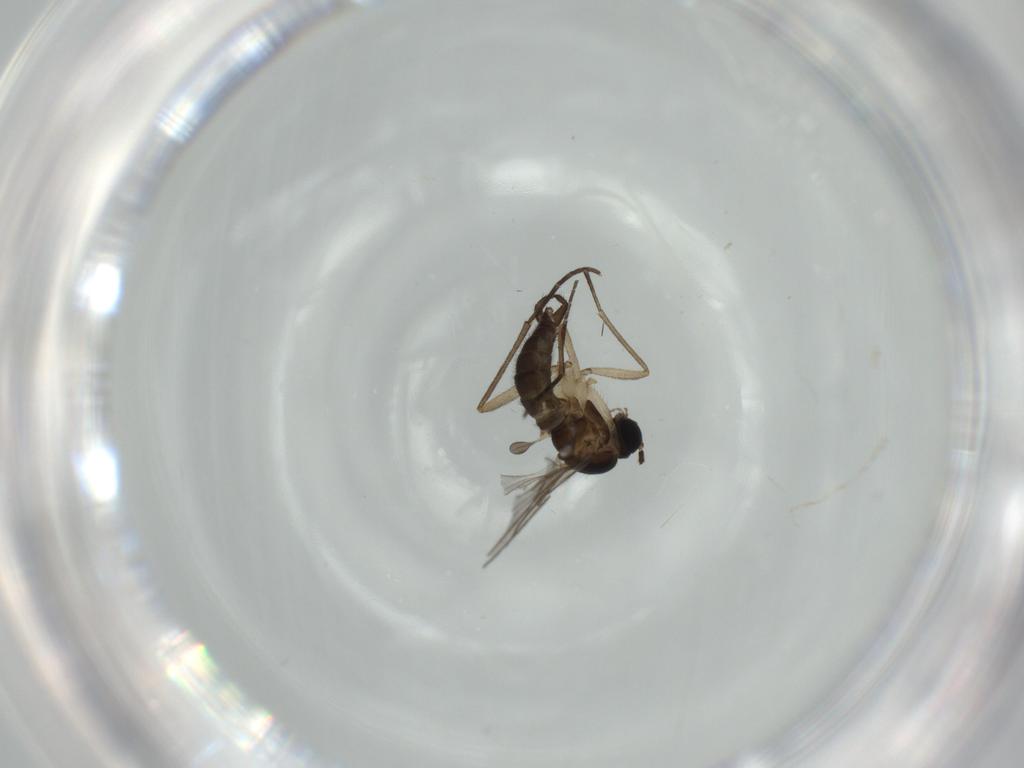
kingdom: Animalia
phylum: Arthropoda
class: Insecta
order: Diptera
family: Sciaridae
